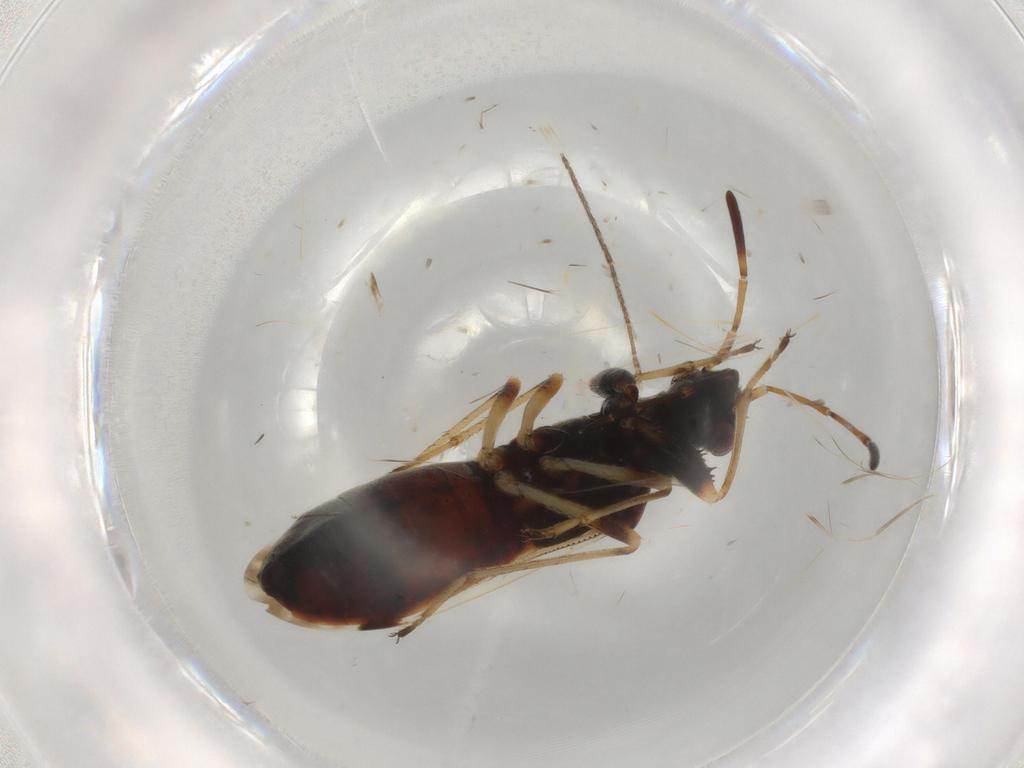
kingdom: Animalia
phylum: Arthropoda
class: Insecta
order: Hemiptera
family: Rhyparochromidae
